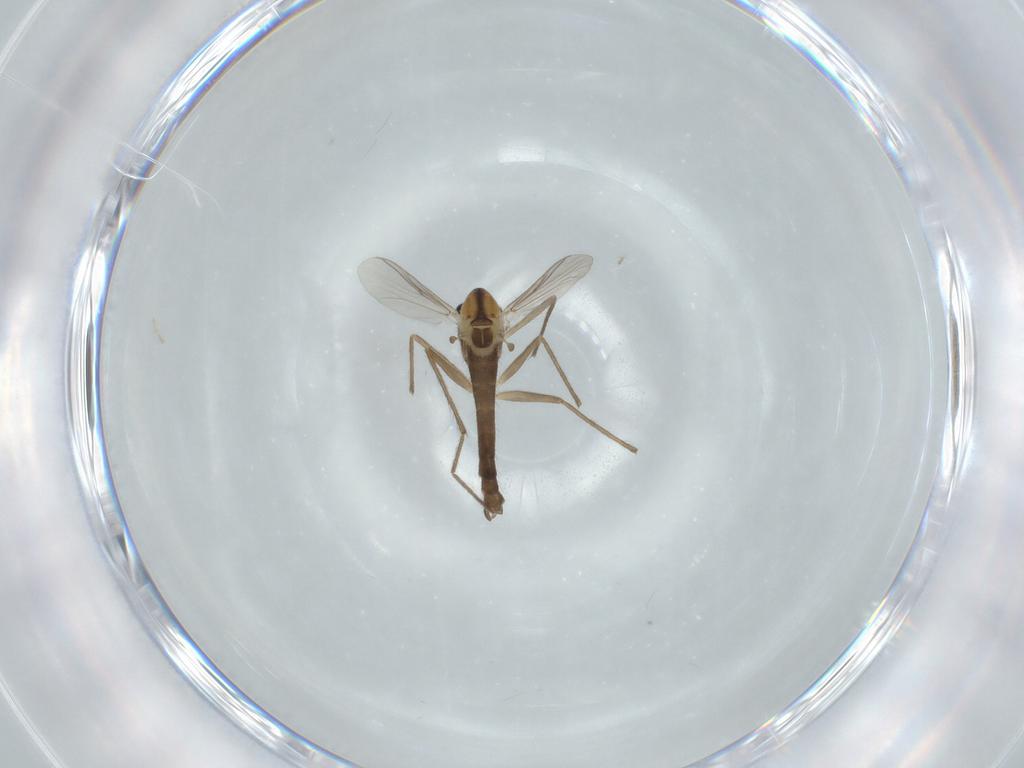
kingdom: Animalia
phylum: Arthropoda
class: Insecta
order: Diptera
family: Chironomidae
